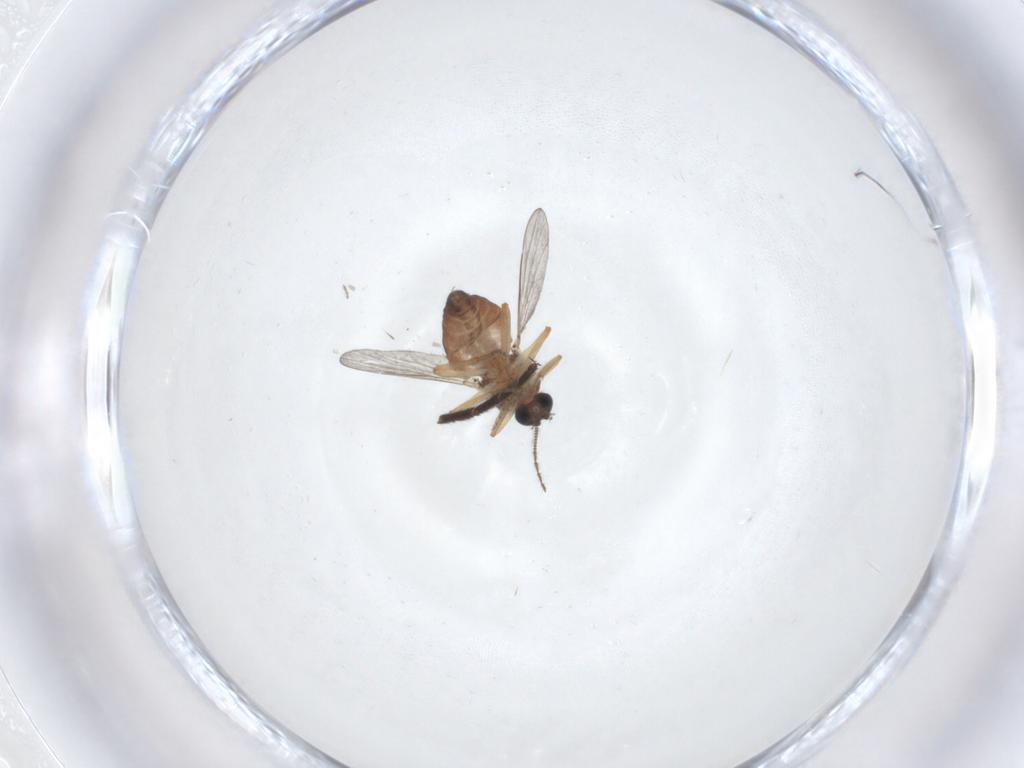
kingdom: Animalia
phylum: Arthropoda
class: Insecta
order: Diptera
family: Ceratopogonidae
